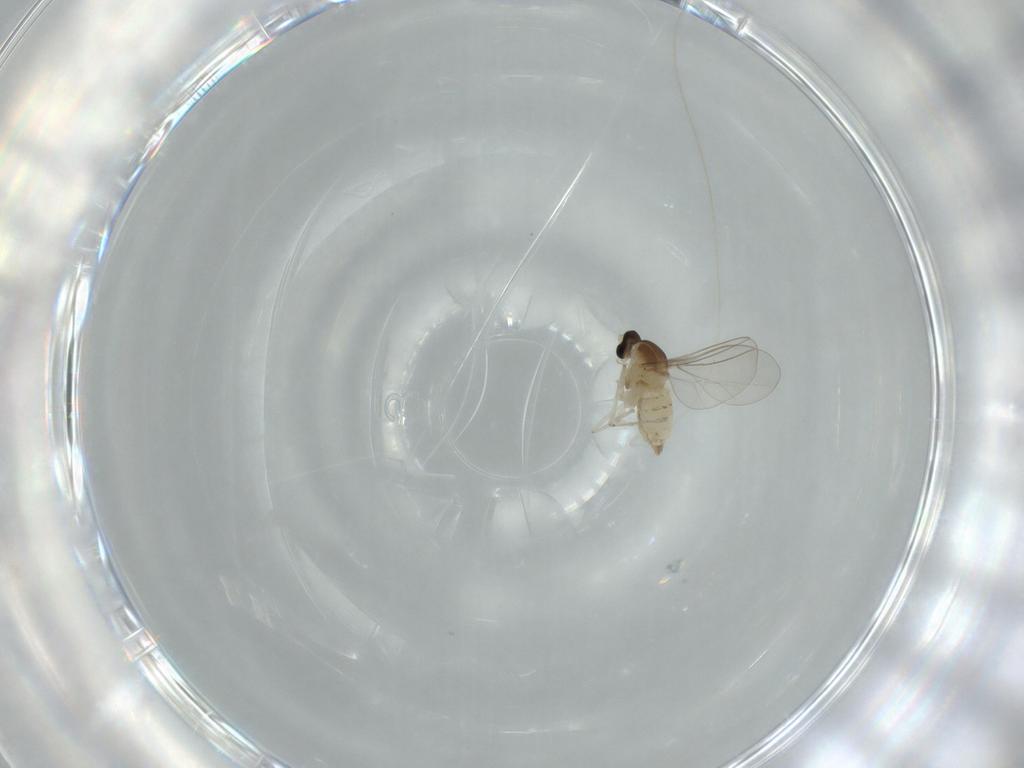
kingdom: Animalia
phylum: Arthropoda
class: Insecta
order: Diptera
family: Cecidomyiidae
